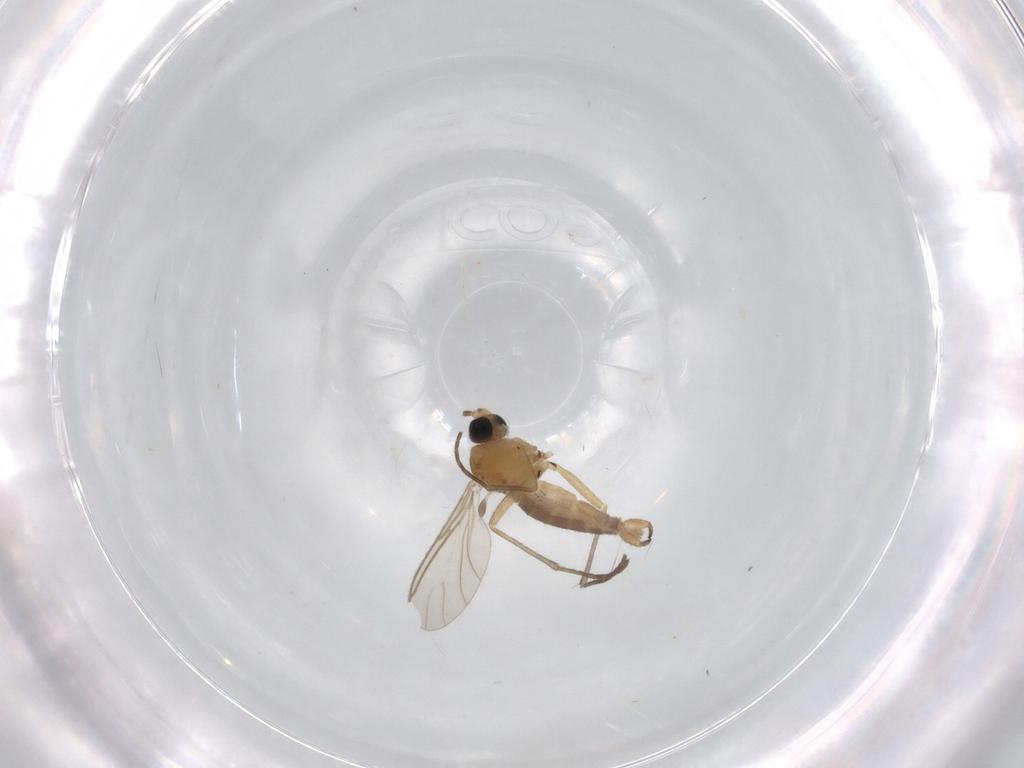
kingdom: Animalia
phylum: Arthropoda
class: Insecta
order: Diptera
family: Sciaridae
